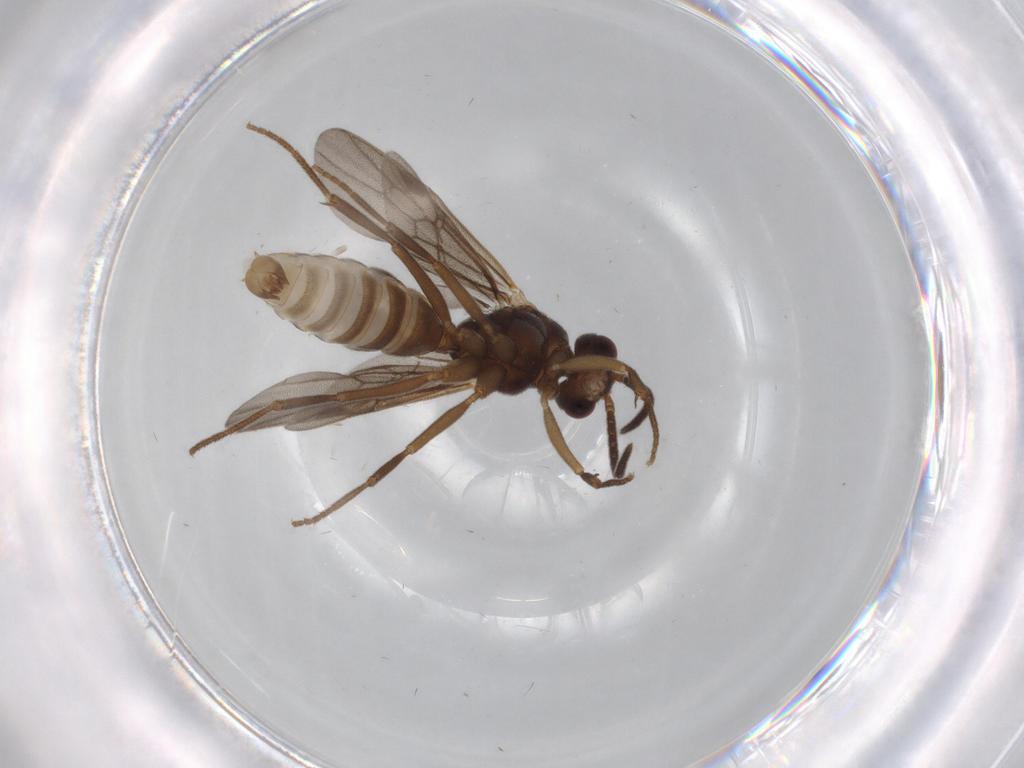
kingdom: Animalia
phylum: Arthropoda
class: Insecta
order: Hymenoptera
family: Formicidae
